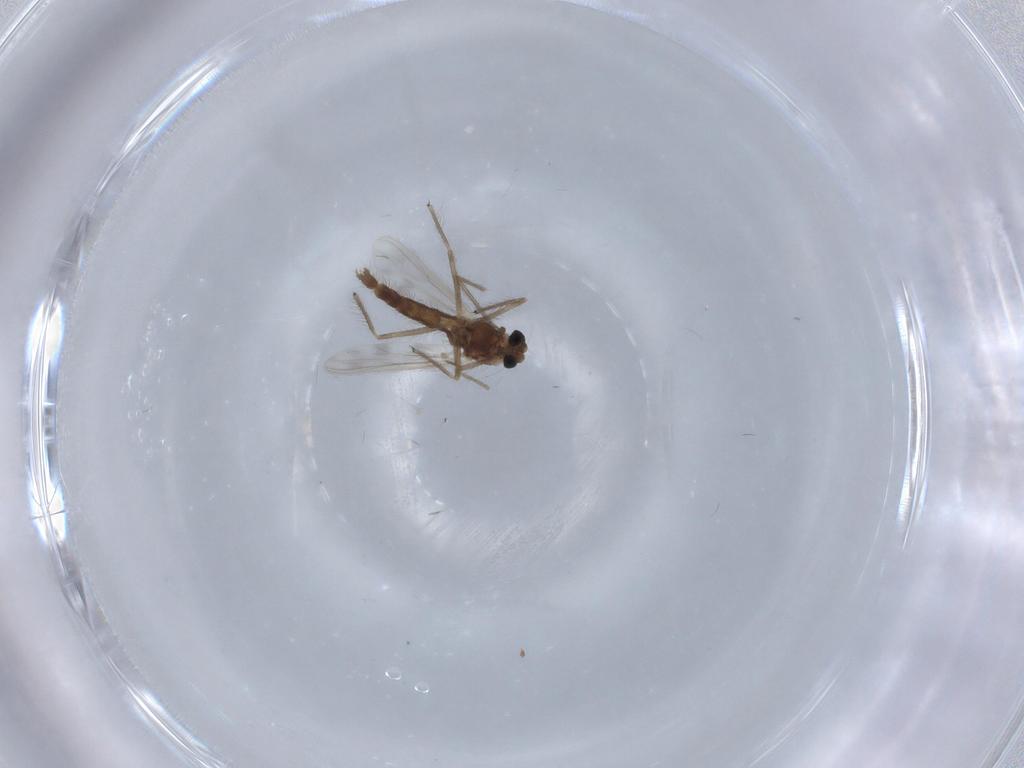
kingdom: Animalia
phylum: Arthropoda
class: Insecta
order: Diptera
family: Chironomidae
